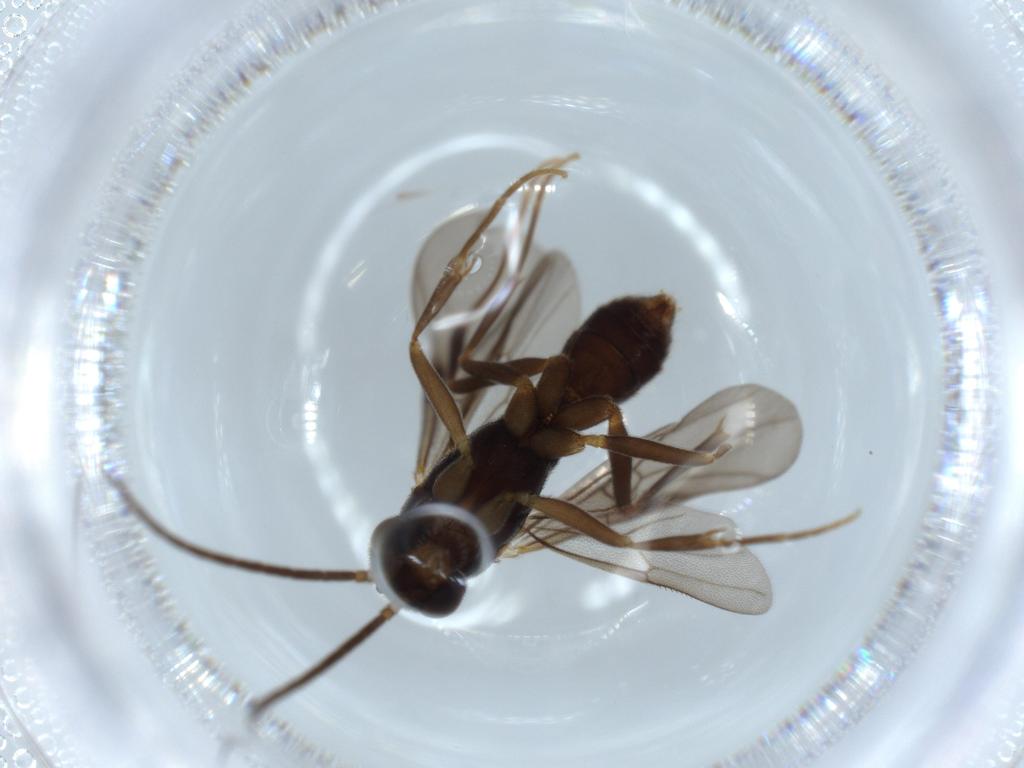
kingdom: Animalia
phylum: Arthropoda
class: Insecta
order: Hymenoptera
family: Formicidae
